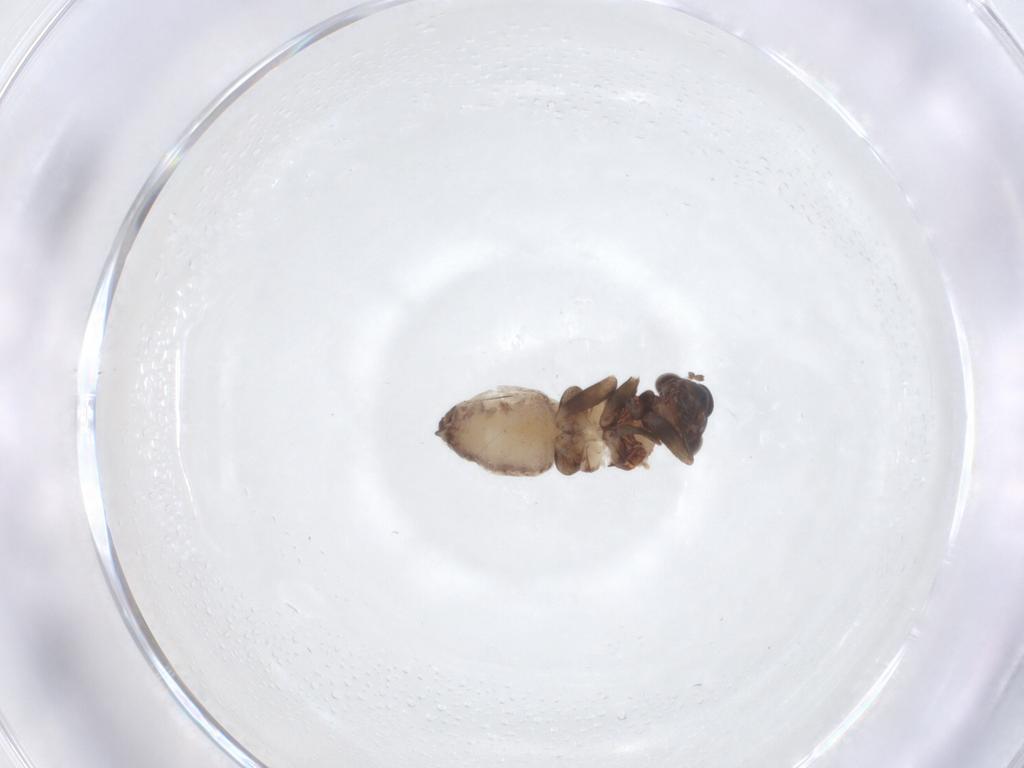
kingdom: Animalia
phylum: Arthropoda
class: Insecta
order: Psocodea
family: Lepidopsocidae
